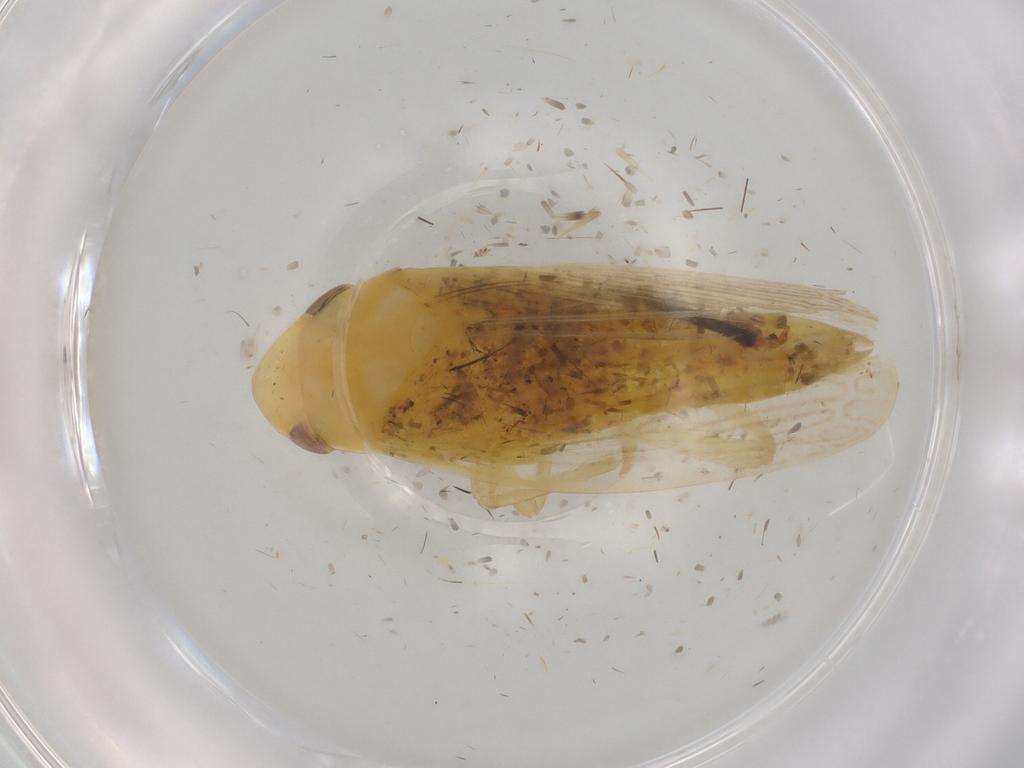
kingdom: Animalia
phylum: Arthropoda
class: Insecta
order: Hemiptera
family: Cicadellidae
